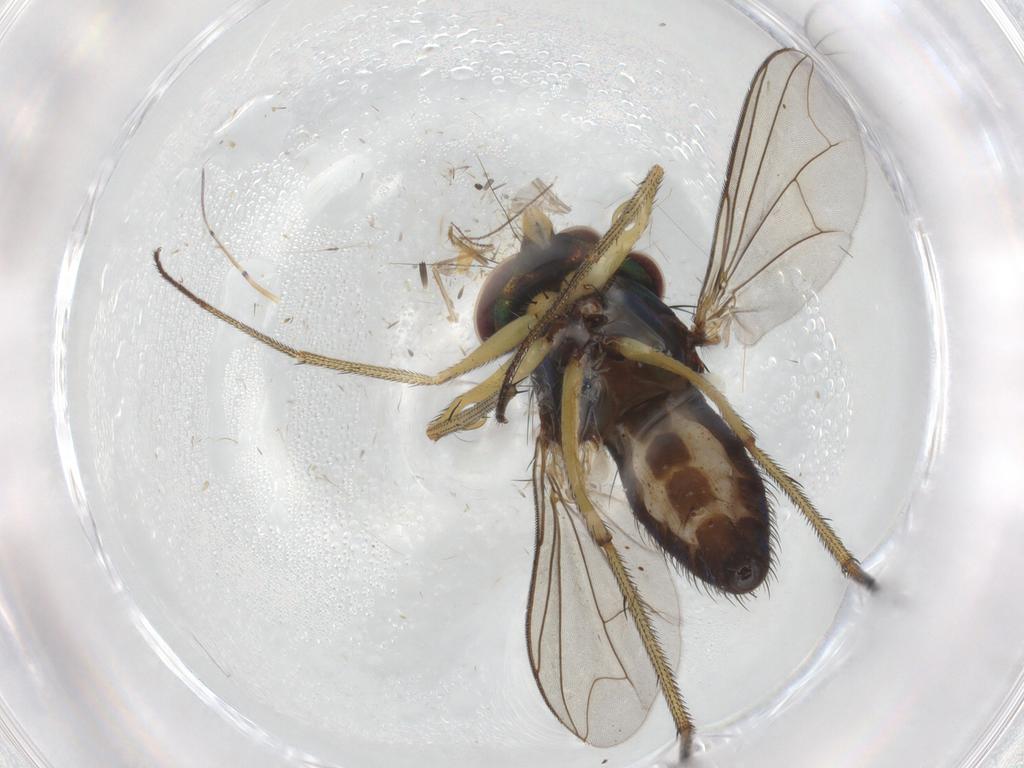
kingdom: Animalia
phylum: Arthropoda
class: Insecta
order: Diptera
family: Dolichopodidae
